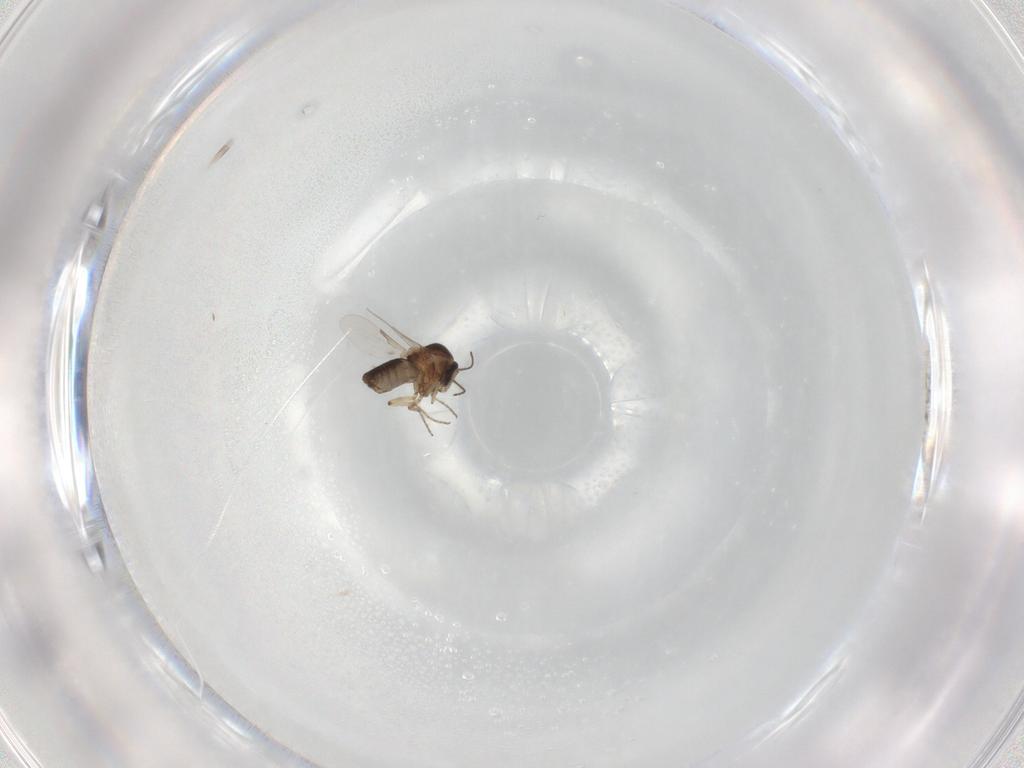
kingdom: Animalia
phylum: Arthropoda
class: Insecta
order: Diptera
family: Ceratopogonidae
